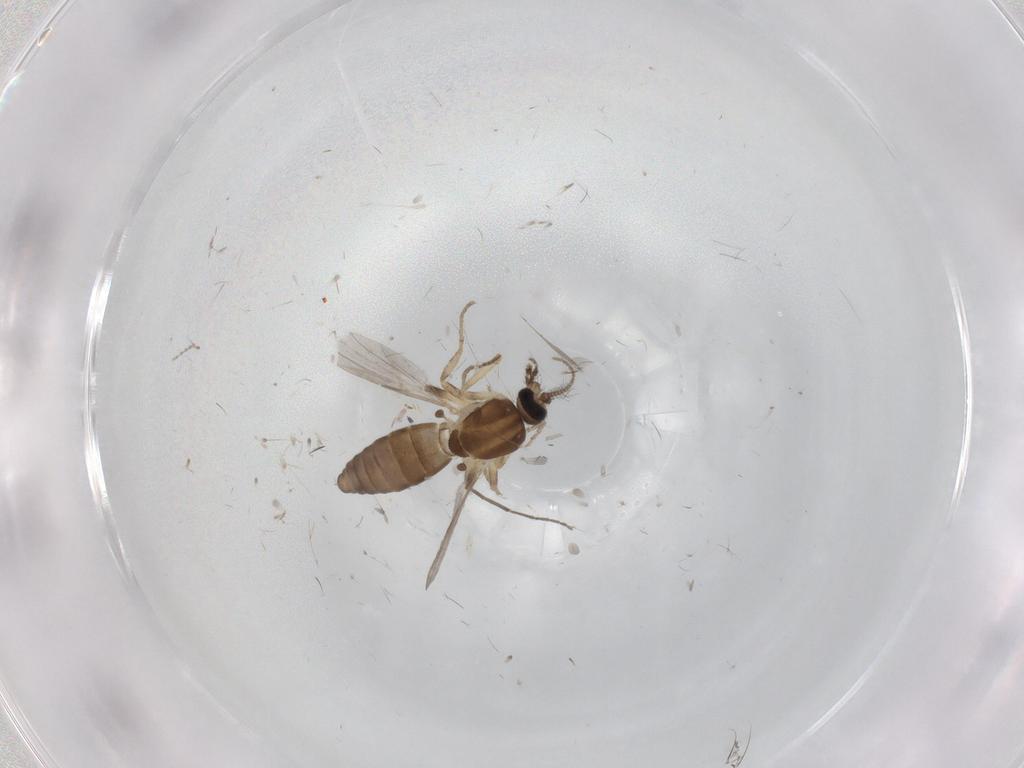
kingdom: Animalia
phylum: Arthropoda
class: Insecta
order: Diptera
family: Ceratopogonidae
